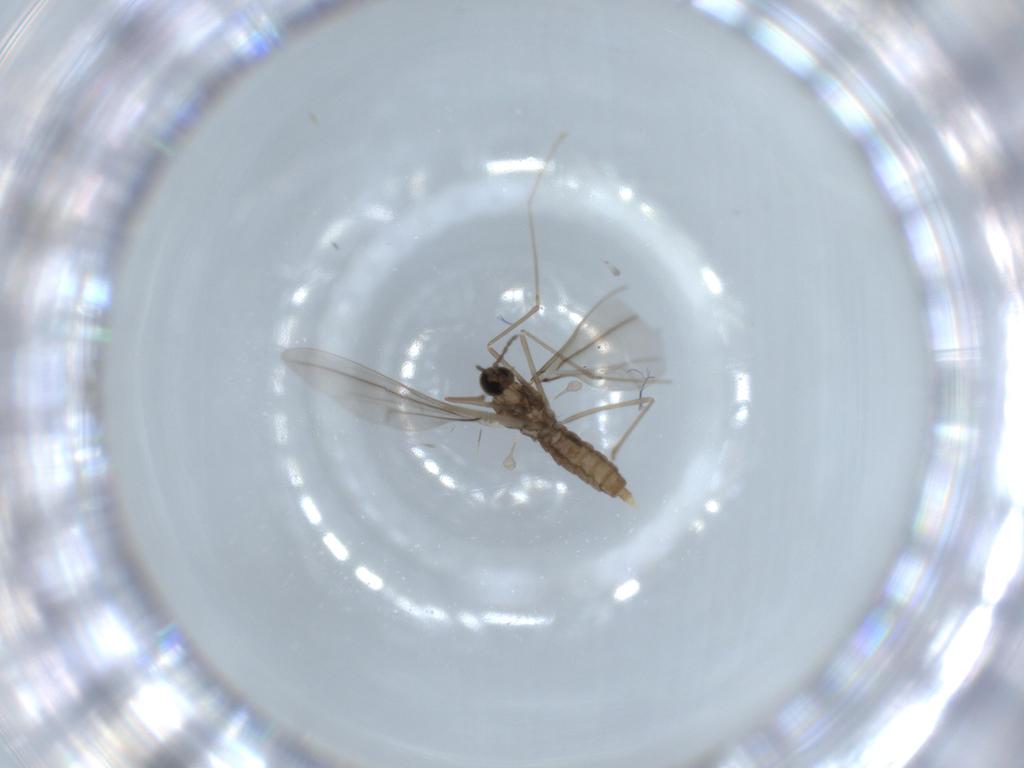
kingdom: Animalia
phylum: Arthropoda
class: Insecta
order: Diptera
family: Cecidomyiidae
